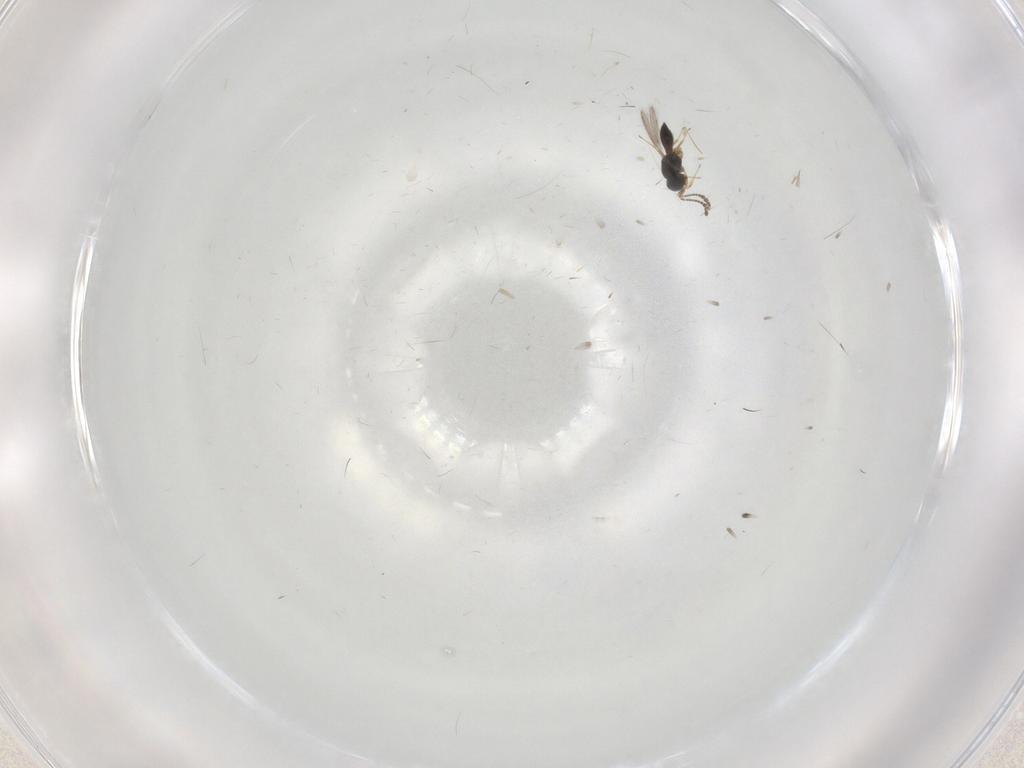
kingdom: Animalia
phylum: Arthropoda
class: Insecta
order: Hymenoptera
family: Scelionidae
